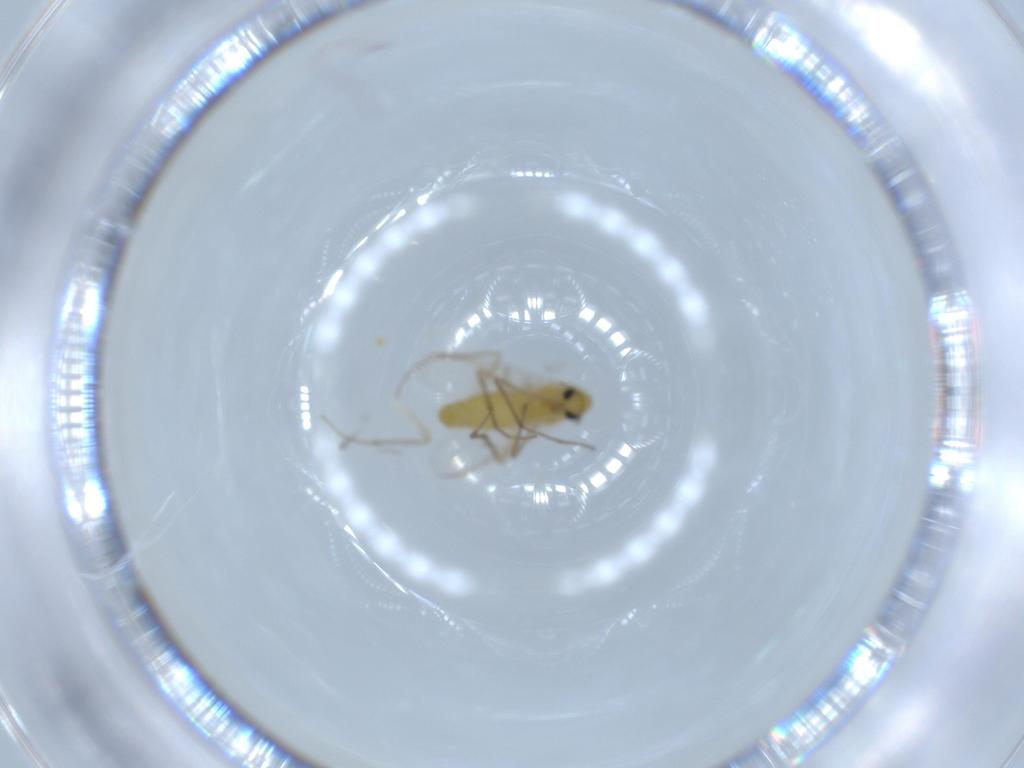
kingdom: Animalia
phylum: Arthropoda
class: Insecta
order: Diptera
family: Chironomidae
